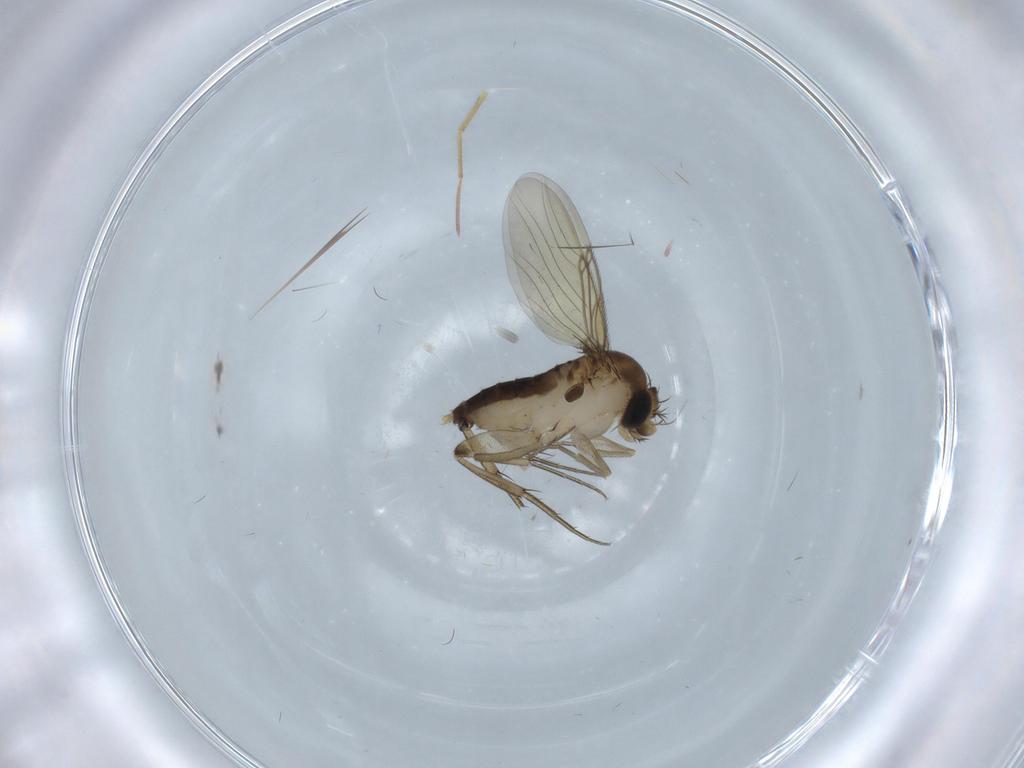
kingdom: Animalia
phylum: Arthropoda
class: Insecta
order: Diptera
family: Phoridae
